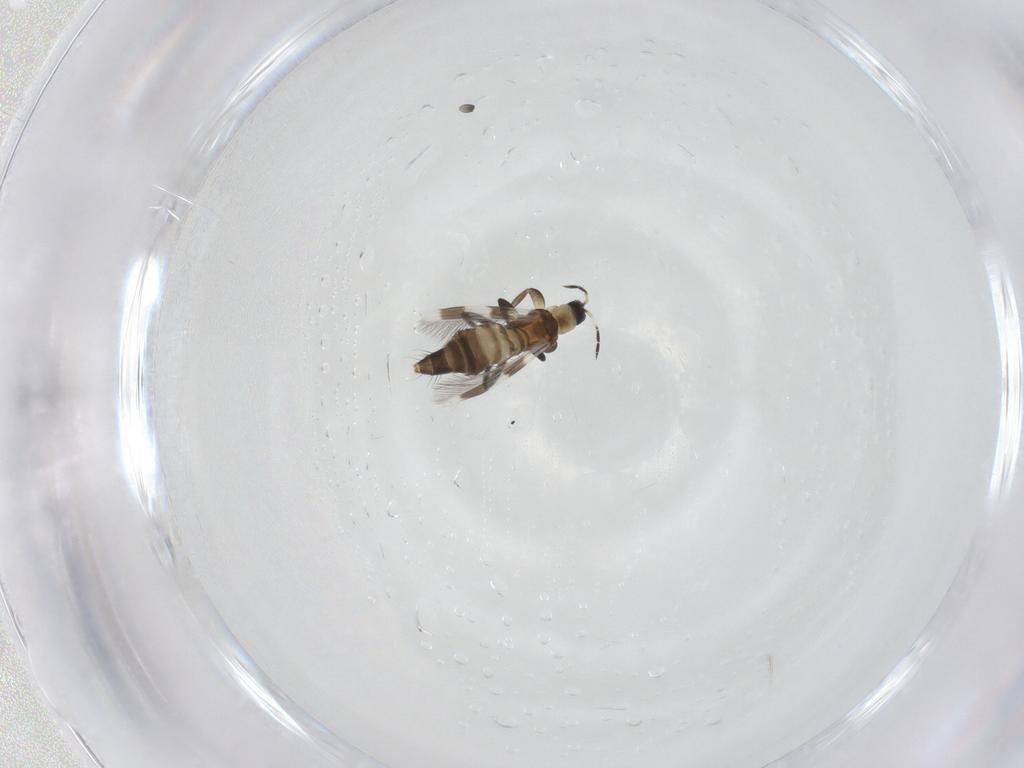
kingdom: Animalia
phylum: Arthropoda
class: Insecta
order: Thysanoptera
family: Aeolothripidae
